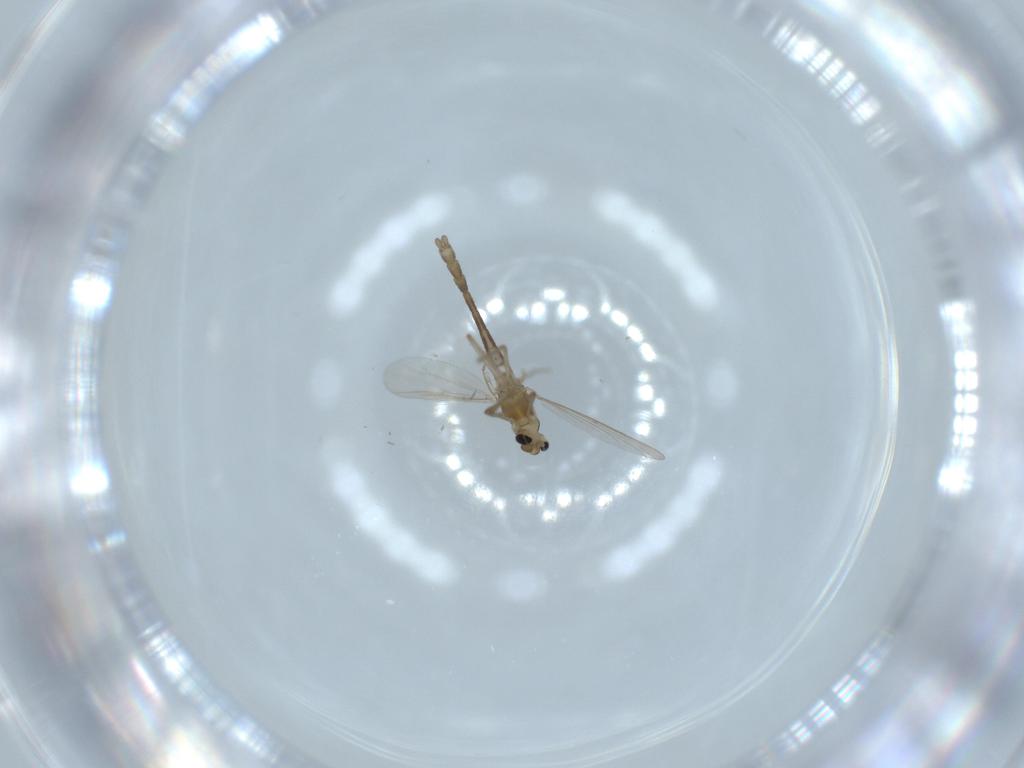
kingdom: Animalia
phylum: Arthropoda
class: Insecta
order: Diptera
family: Chironomidae
